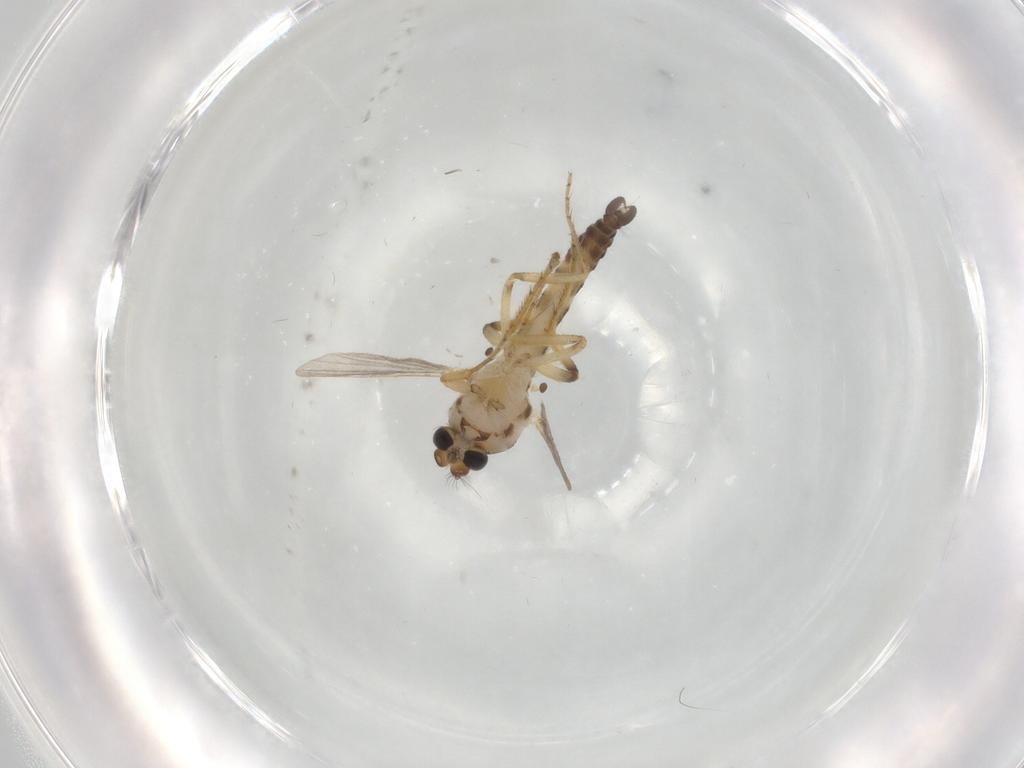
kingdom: Animalia
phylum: Arthropoda
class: Insecta
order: Diptera
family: Ceratopogonidae
